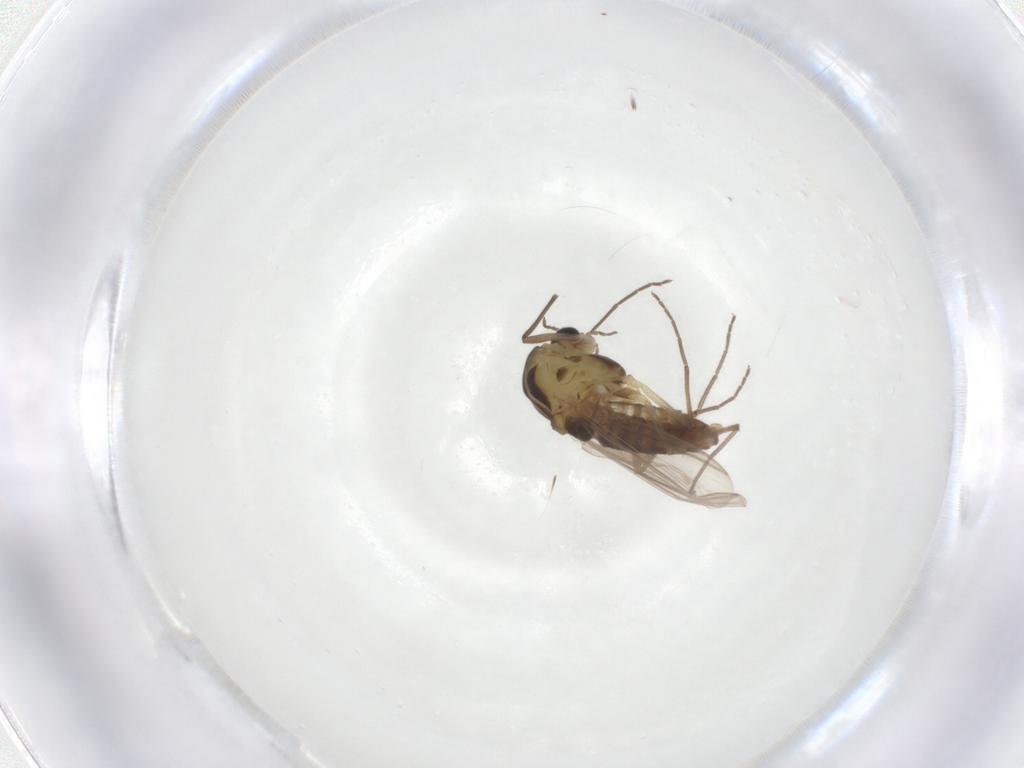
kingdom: Animalia
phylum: Arthropoda
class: Insecta
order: Diptera
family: Chironomidae
